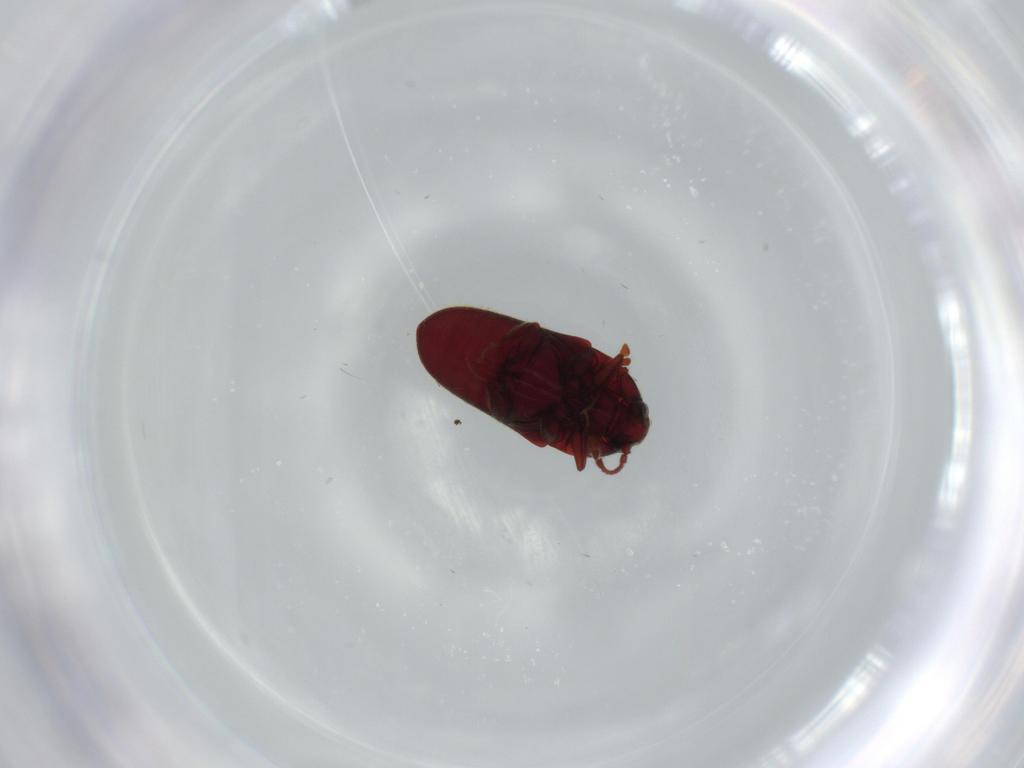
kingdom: Animalia
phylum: Arthropoda
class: Insecta
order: Coleoptera
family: Throscidae
